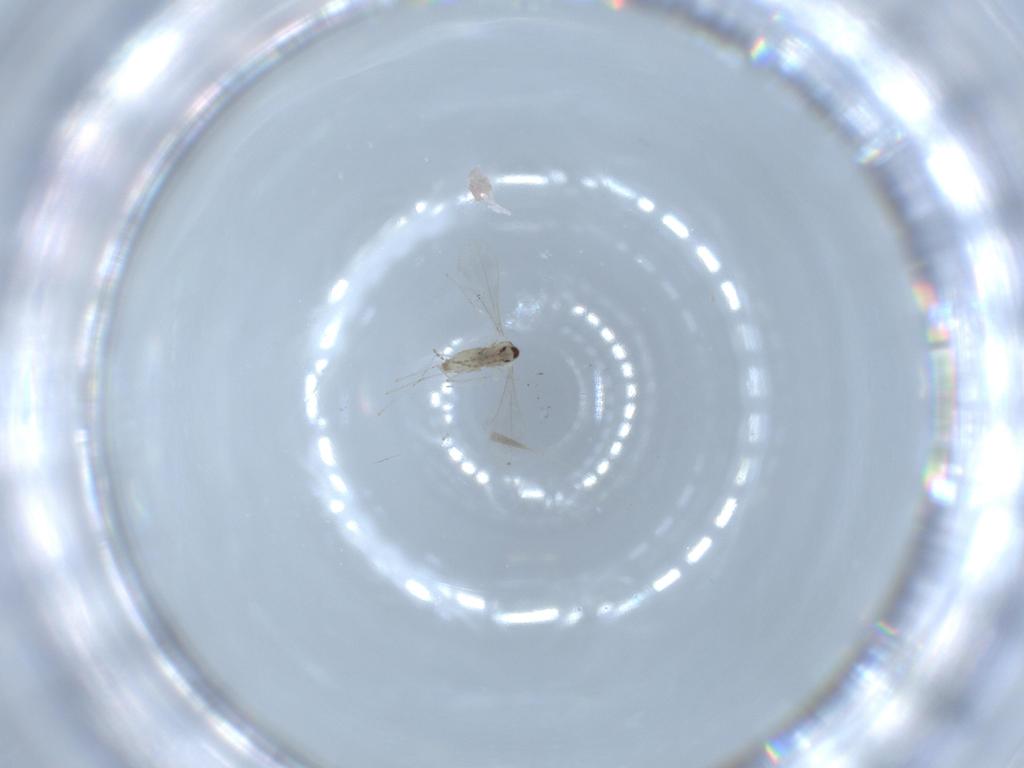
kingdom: Animalia
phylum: Arthropoda
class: Insecta
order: Diptera
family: Cecidomyiidae
